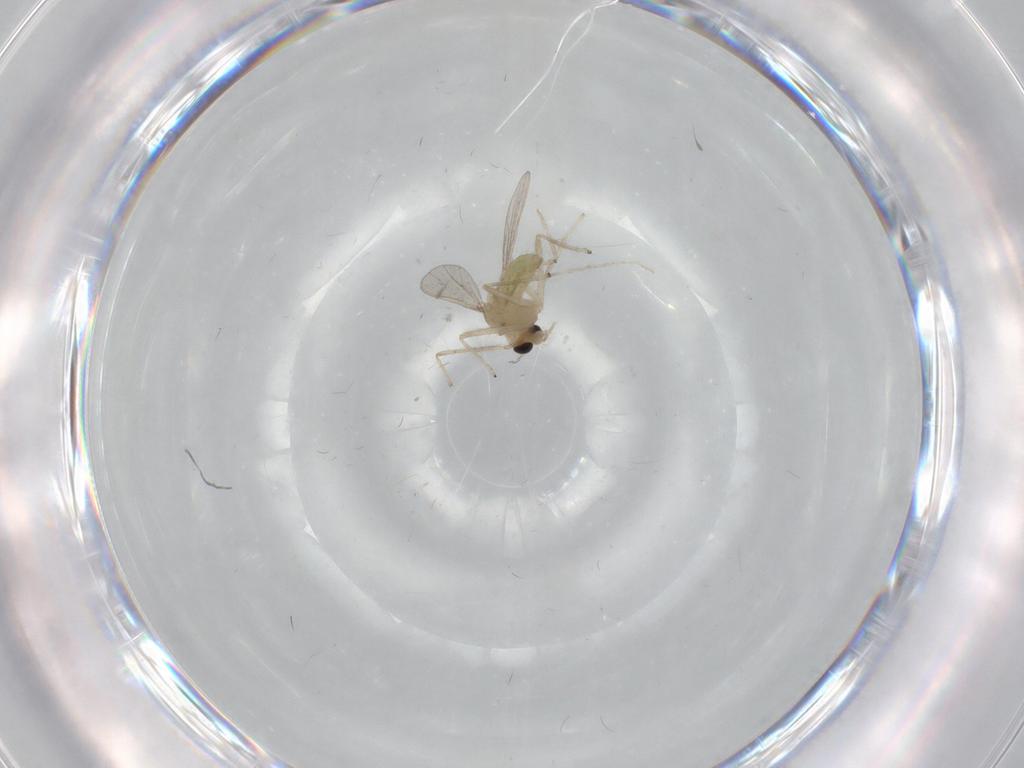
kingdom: Animalia
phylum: Arthropoda
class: Insecta
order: Diptera
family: Chironomidae
